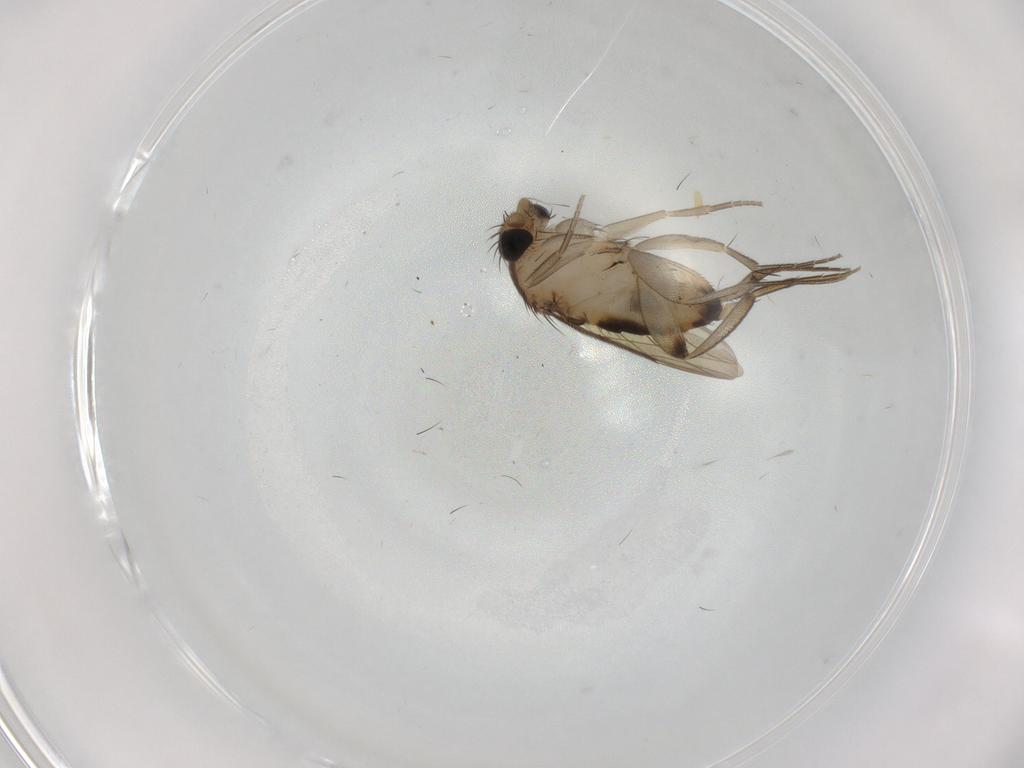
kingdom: Animalia
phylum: Arthropoda
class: Insecta
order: Diptera
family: Phoridae
